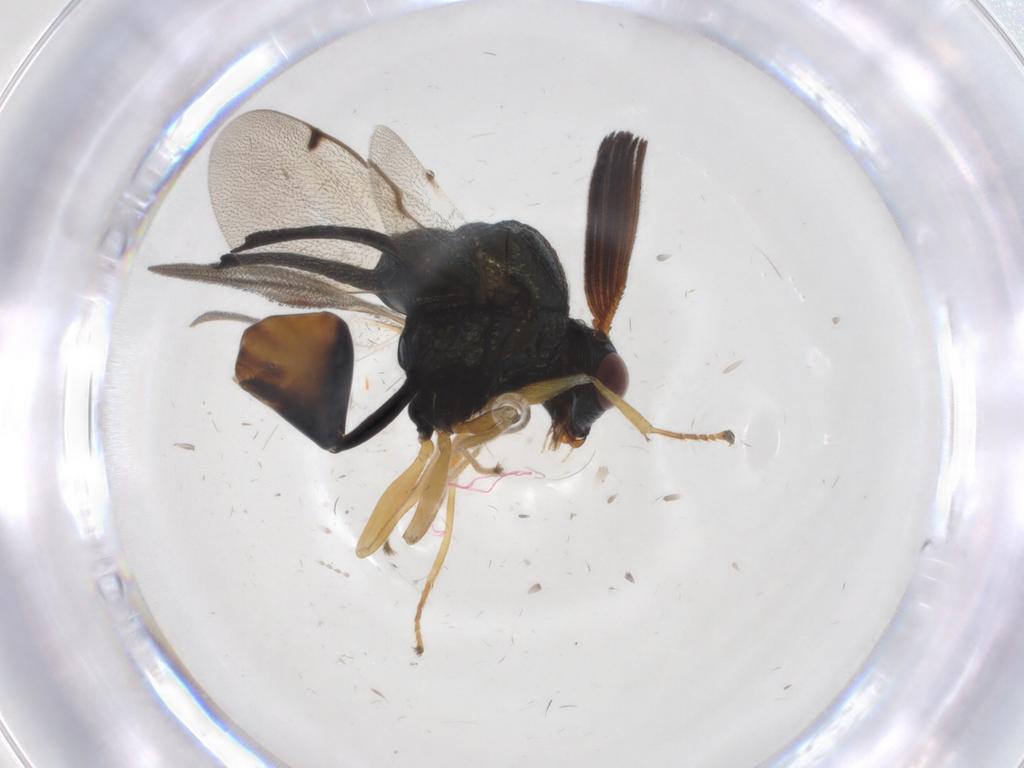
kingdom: Animalia
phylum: Arthropoda
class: Insecta
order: Hymenoptera
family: Vespidae
